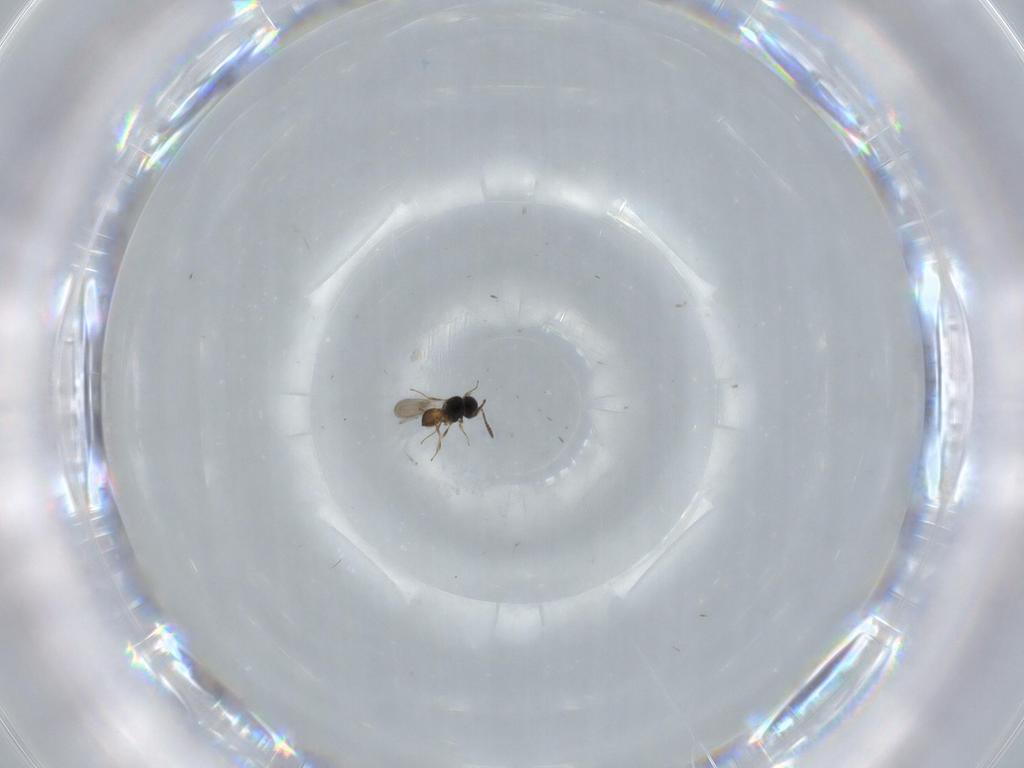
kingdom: Animalia
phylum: Arthropoda
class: Insecta
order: Hymenoptera
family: Scelionidae
